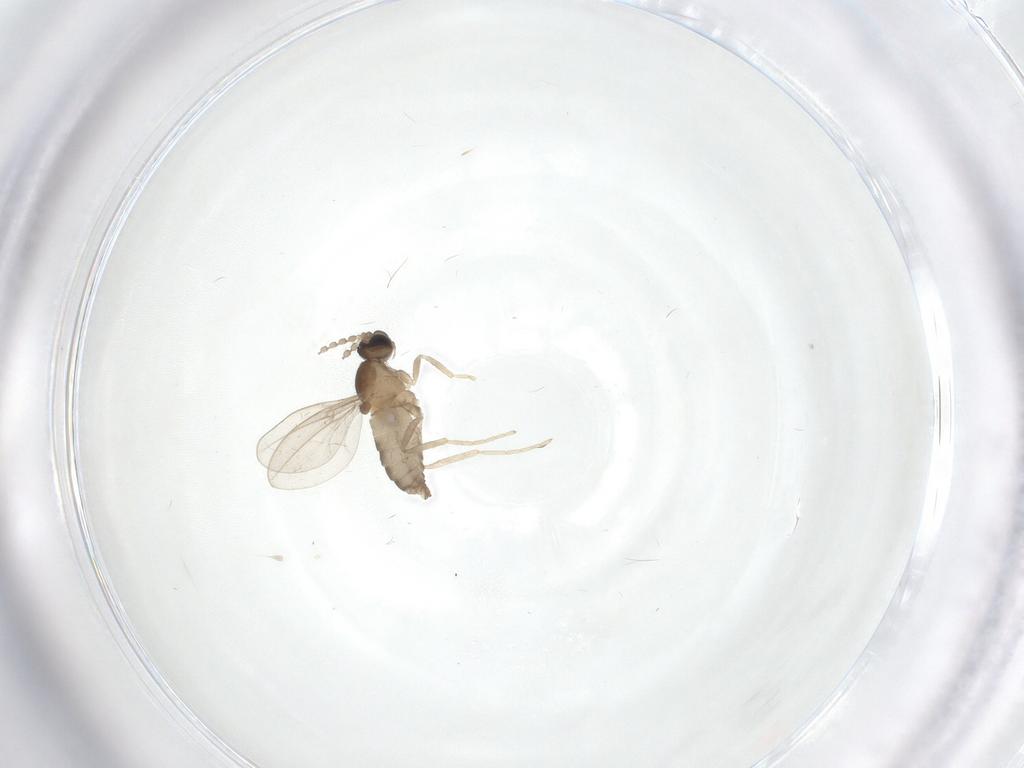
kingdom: Animalia
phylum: Arthropoda
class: Insecta
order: Diptera
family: Cecidomyiidae
